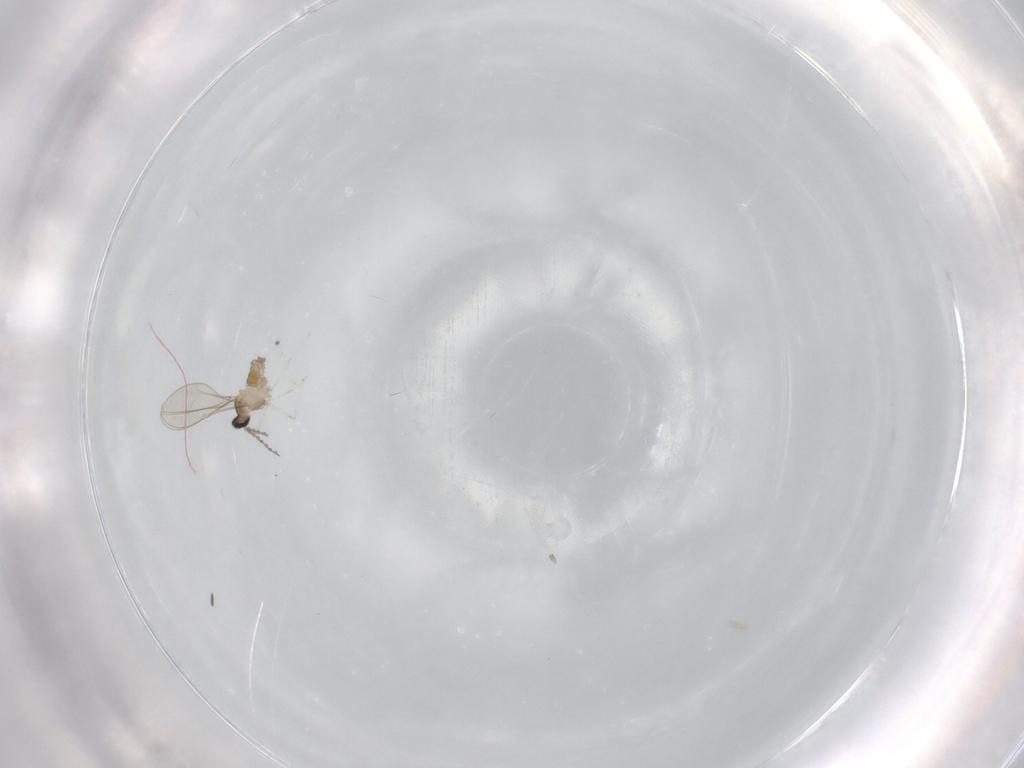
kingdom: Animalia
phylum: Arthropoda
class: Insecta
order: Diptera
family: Cecidomyiidae
